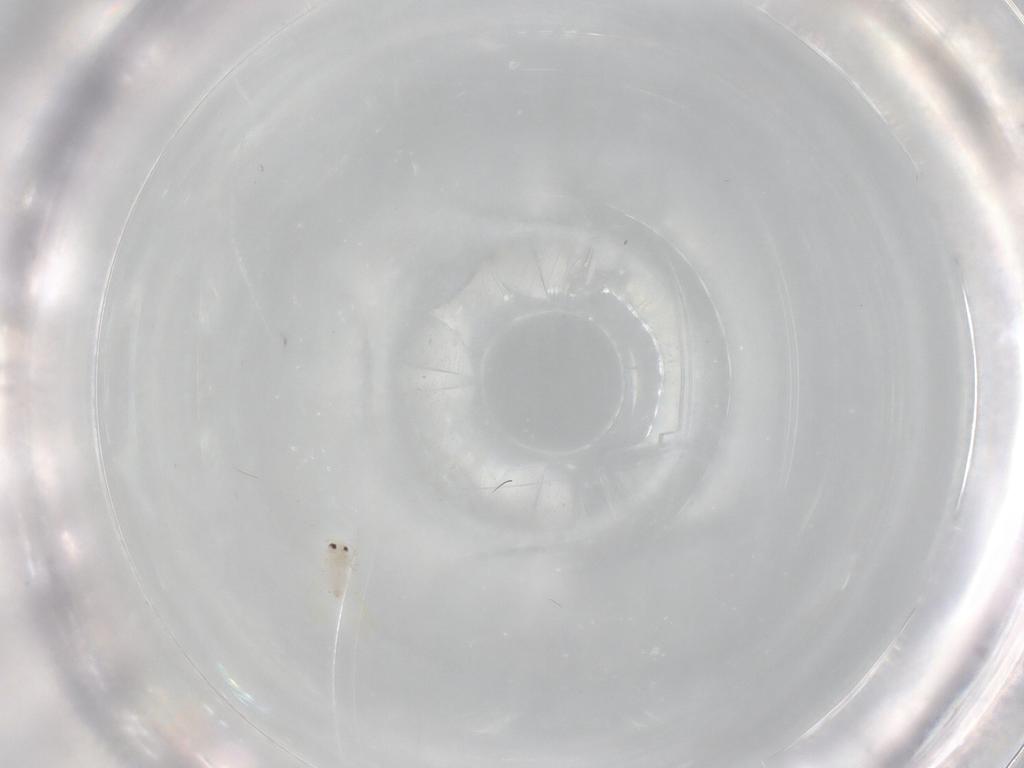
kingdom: Animalia
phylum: Arthropoda
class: Insecta
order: Hemiptera
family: Aleyrodidae
